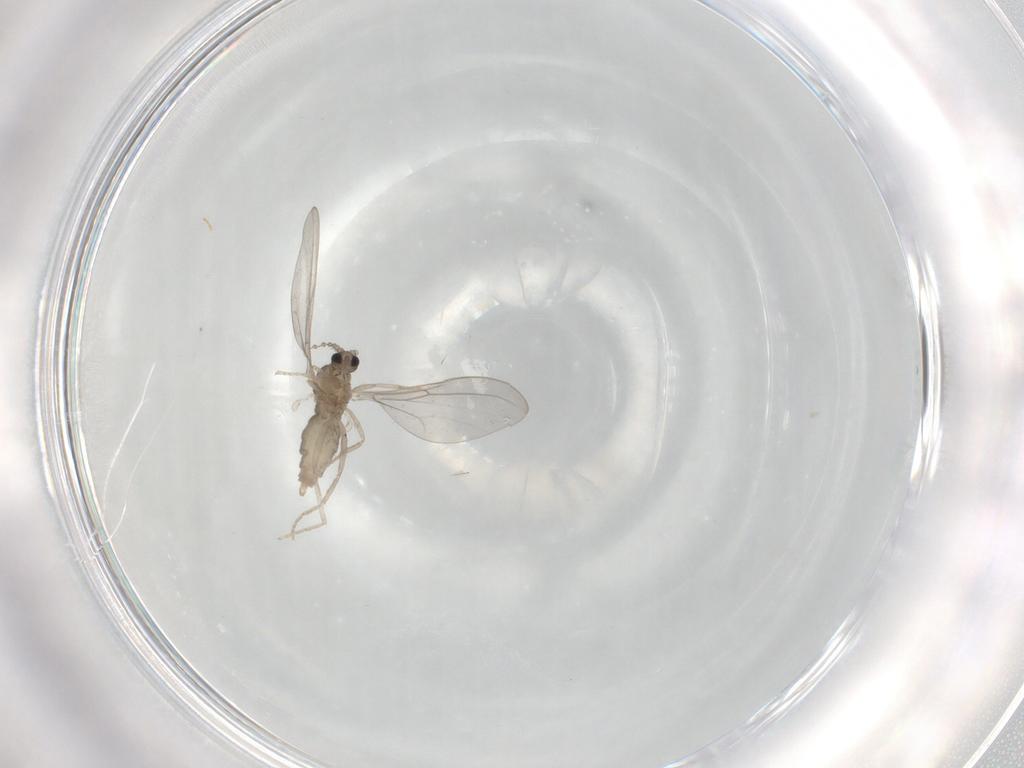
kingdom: Animalia
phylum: Arthropoda
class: Insecta
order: Diptera
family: Cecidomyiidae
